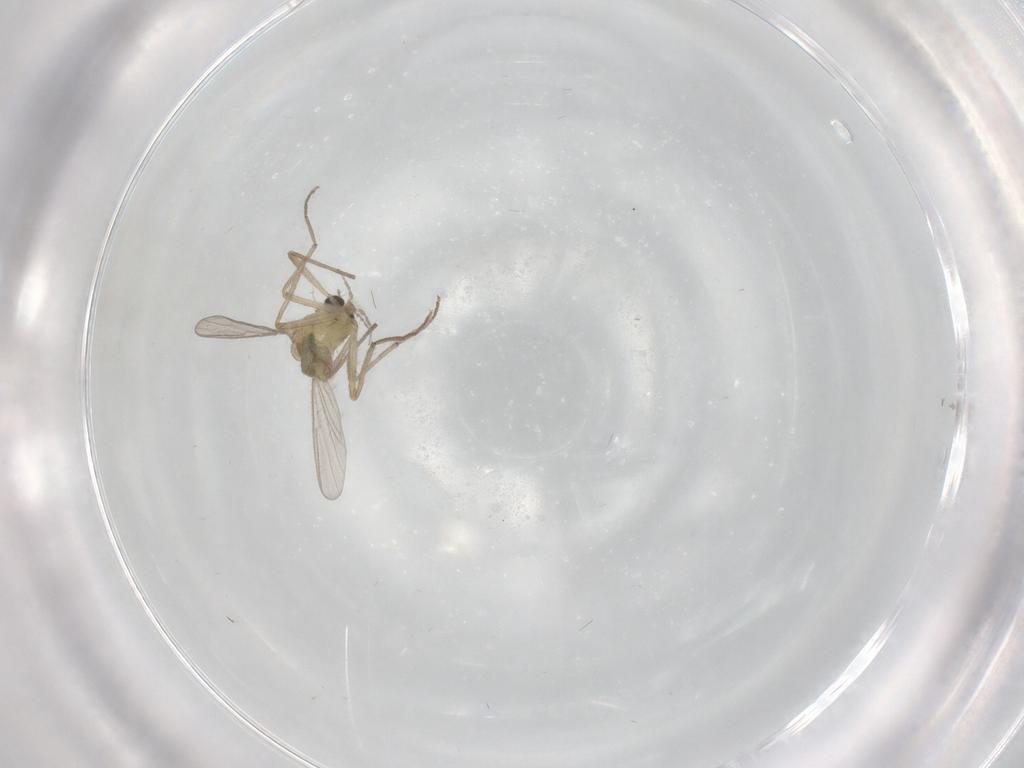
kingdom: Animalia
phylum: Arthropoda
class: Insecta
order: Diptera
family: Chironomidae
